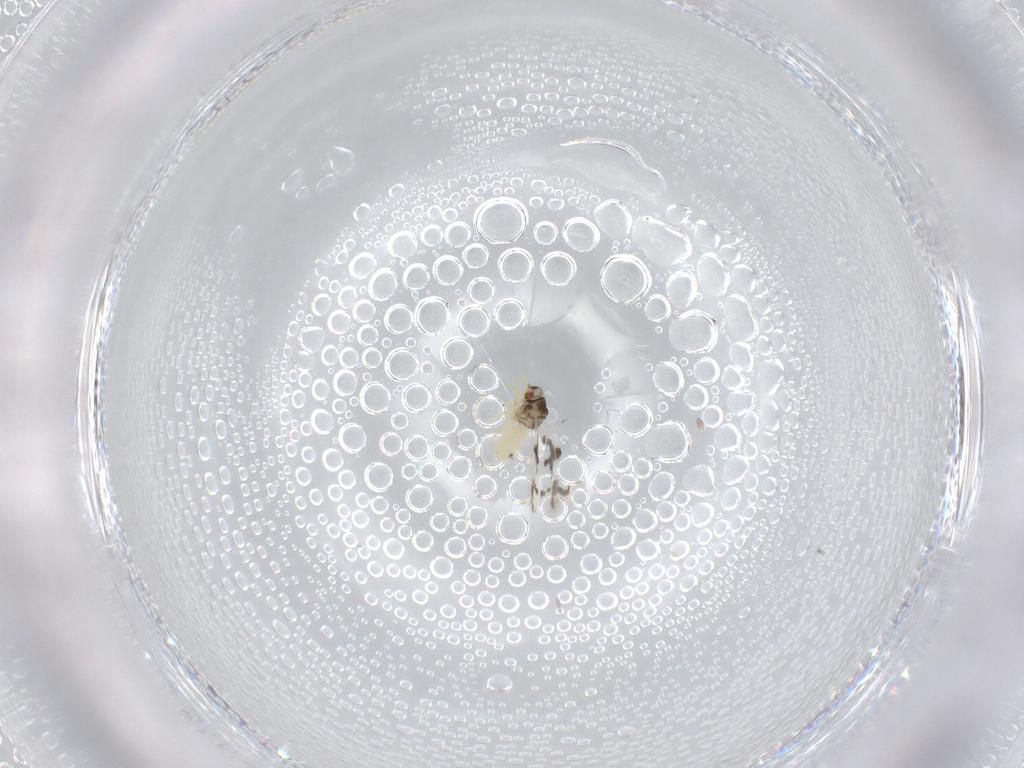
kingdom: Animalia
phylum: Arthropoda
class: Insecta
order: Hemiptera
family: Aleyrodidae
